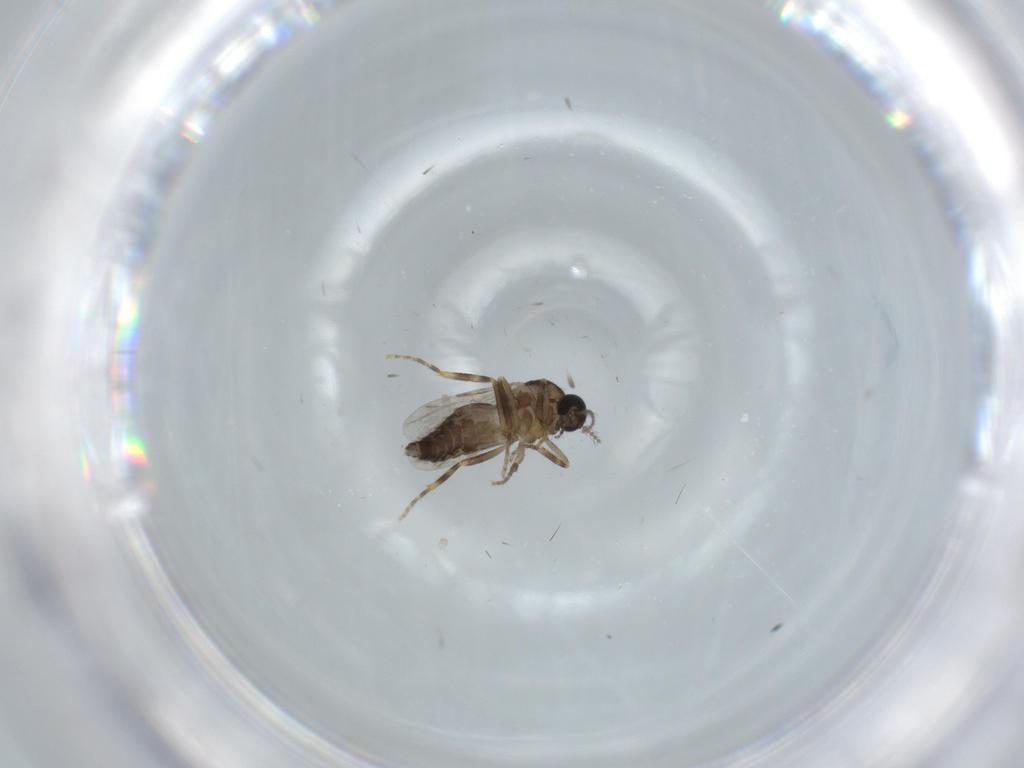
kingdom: Animalia
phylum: Arthropoda
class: Insecta
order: Diptera
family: Ceratopogonidae
